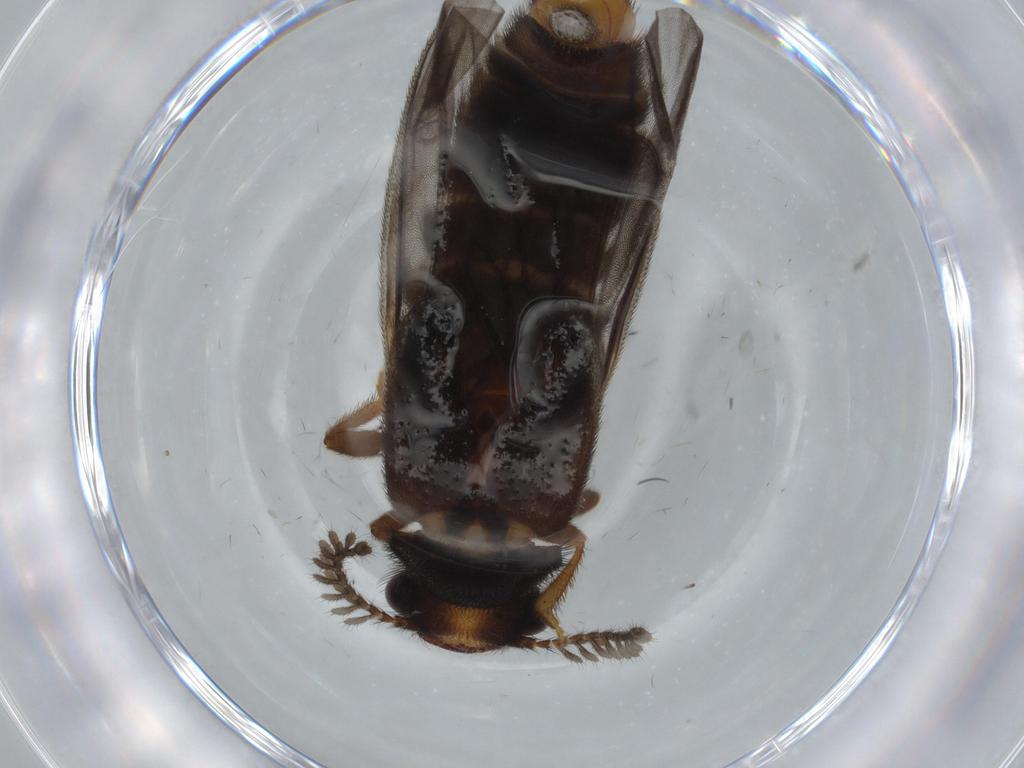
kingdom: Animalia
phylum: Arthropoda
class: Insecta
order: Coleoptera
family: Phengodidae
